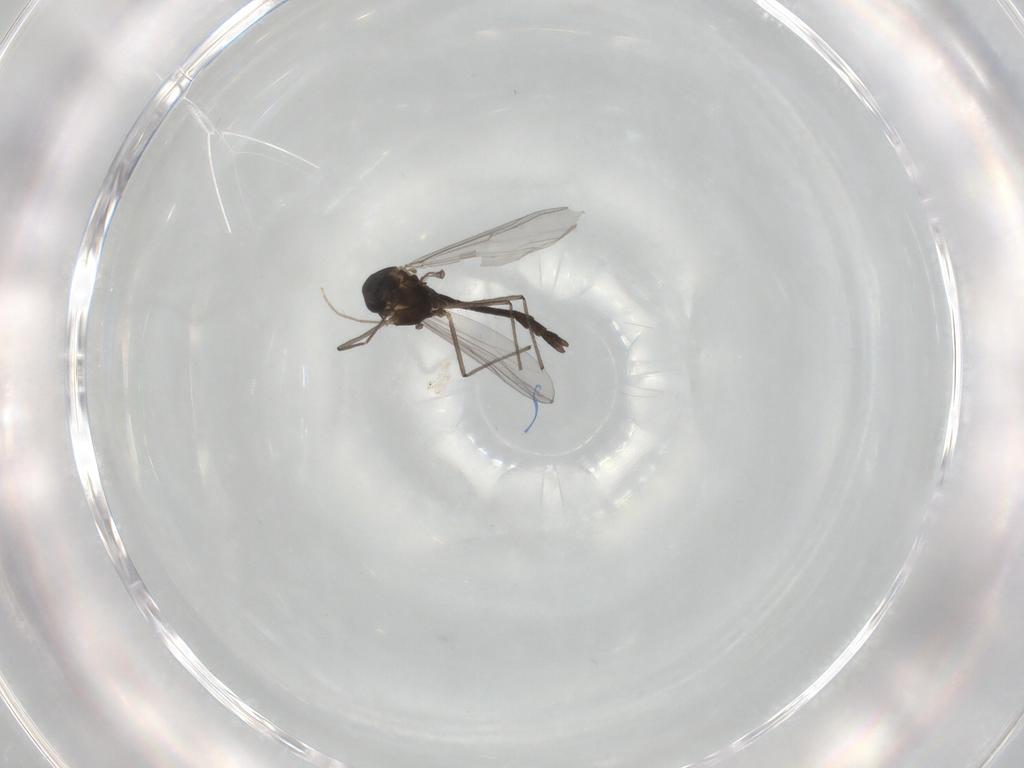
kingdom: Animalia
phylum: Arthropoda
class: Insecta
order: Diptera
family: Chironomidae
